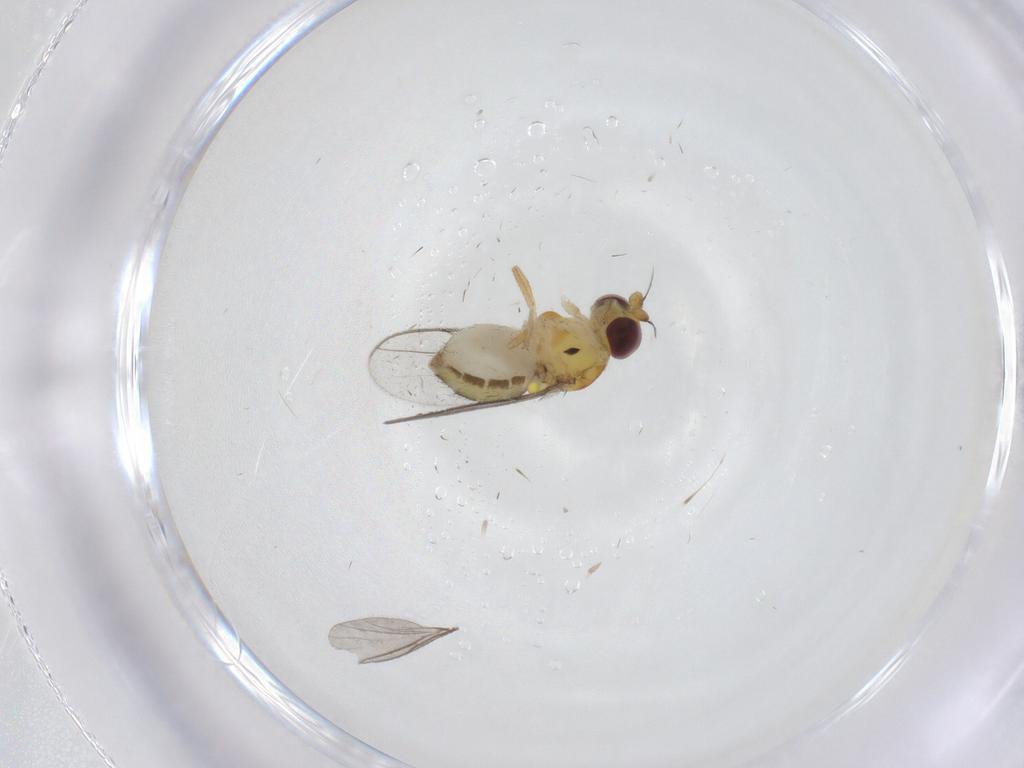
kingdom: Animalia
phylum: Arthropoda
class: Insecta
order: Diptera
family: Chloropidae
